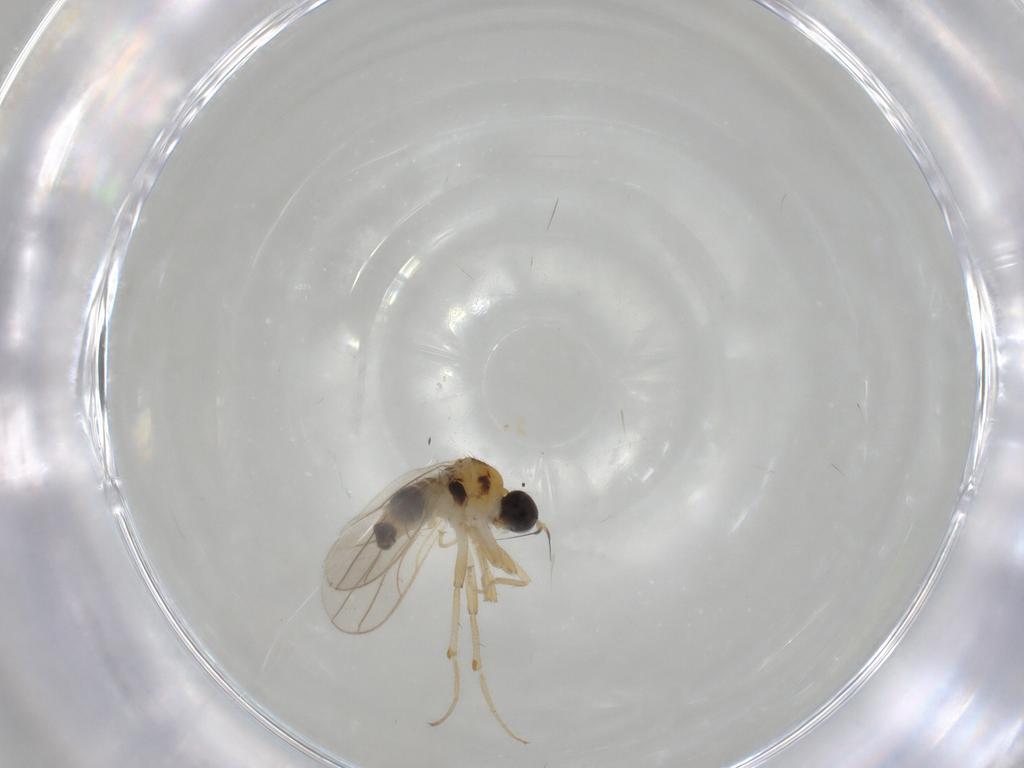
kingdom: Animalia
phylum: Arthropoda
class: Insecta
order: Diptera
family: Hybotidae
